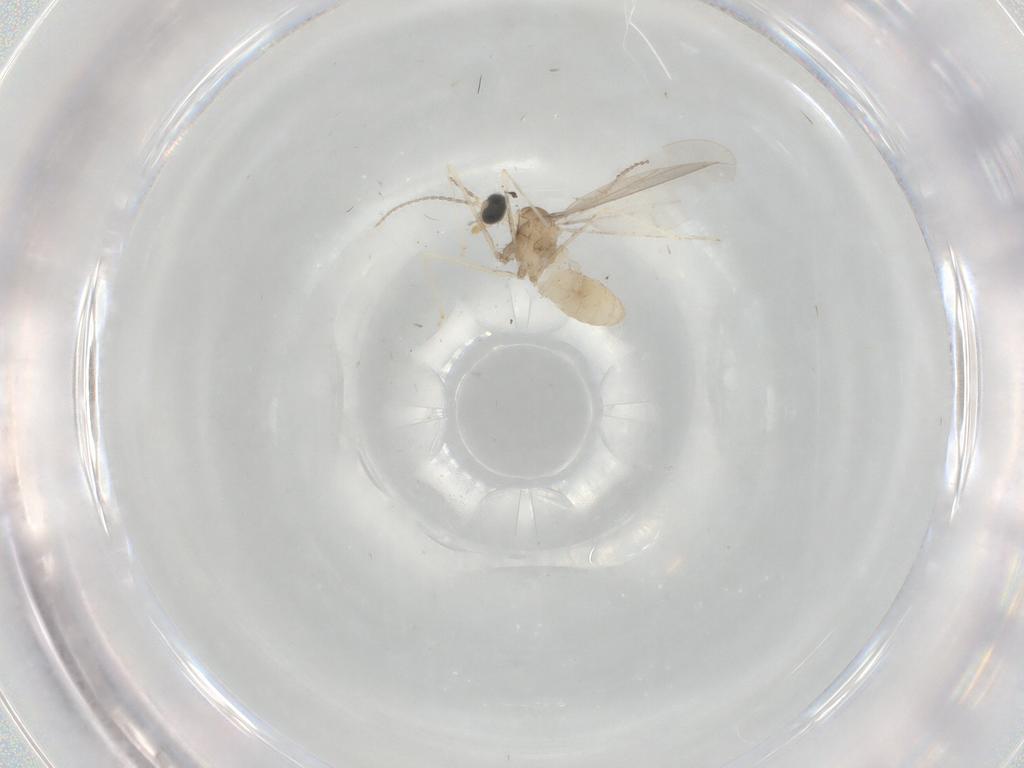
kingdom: Animalia
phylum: Arthropoda
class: Insecta
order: Diptera
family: Cecidomyiidae
